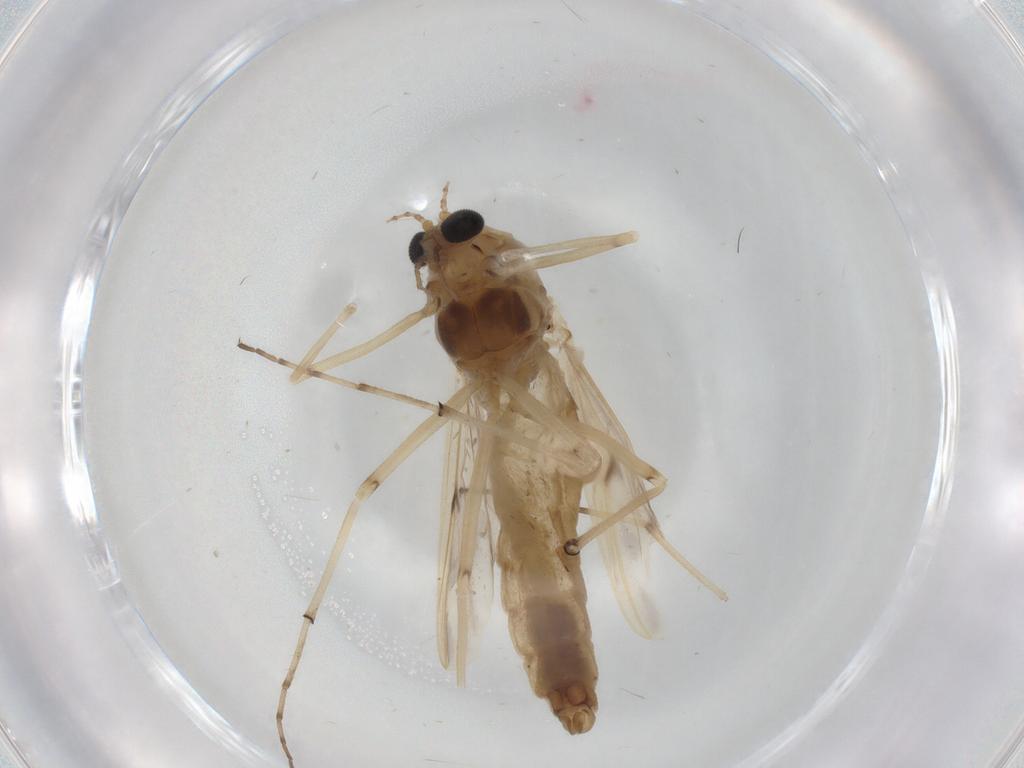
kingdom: Animalia
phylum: Arthropoda
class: Insecta
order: Diptera
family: Chironomidae
